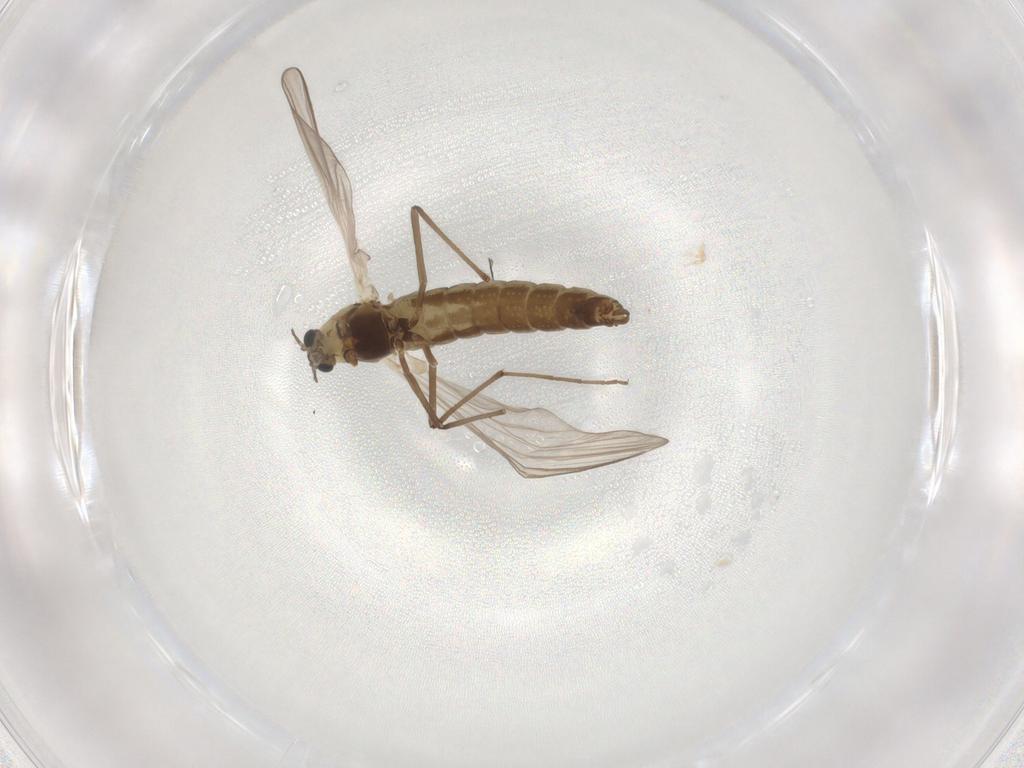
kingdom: Animalia
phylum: Arthropoda
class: Insecta
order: Diptera
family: Chironomidae
